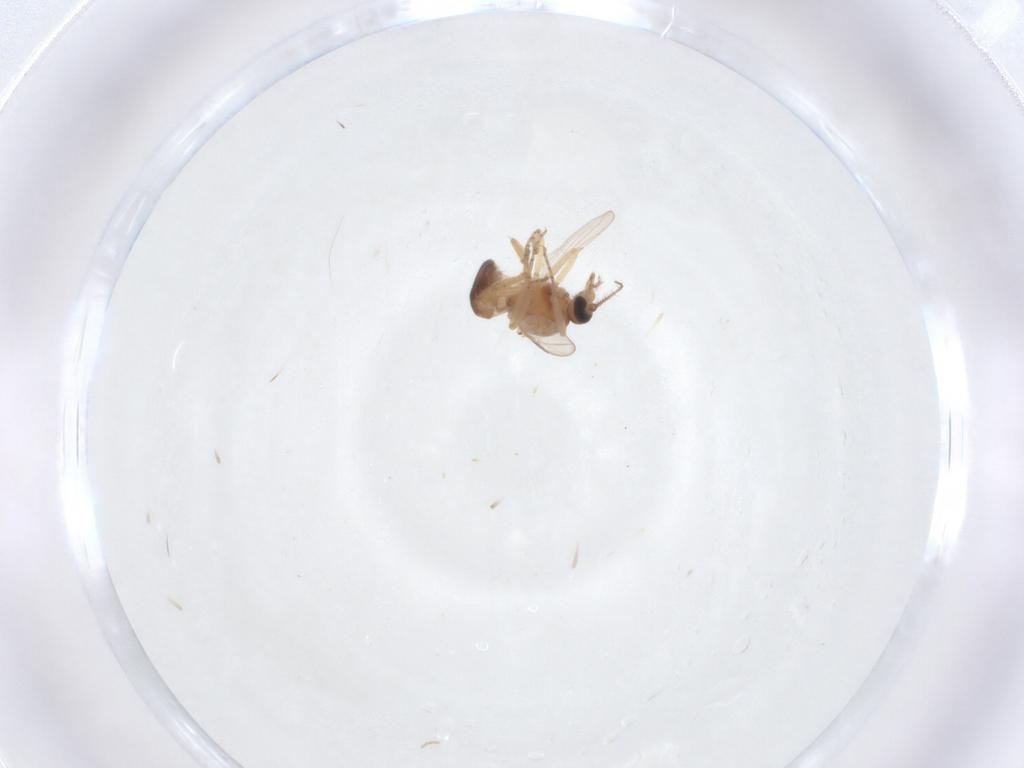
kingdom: Animalia
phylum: Arthropoda
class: Insecta
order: Diptera
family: Ceratopogonidae
